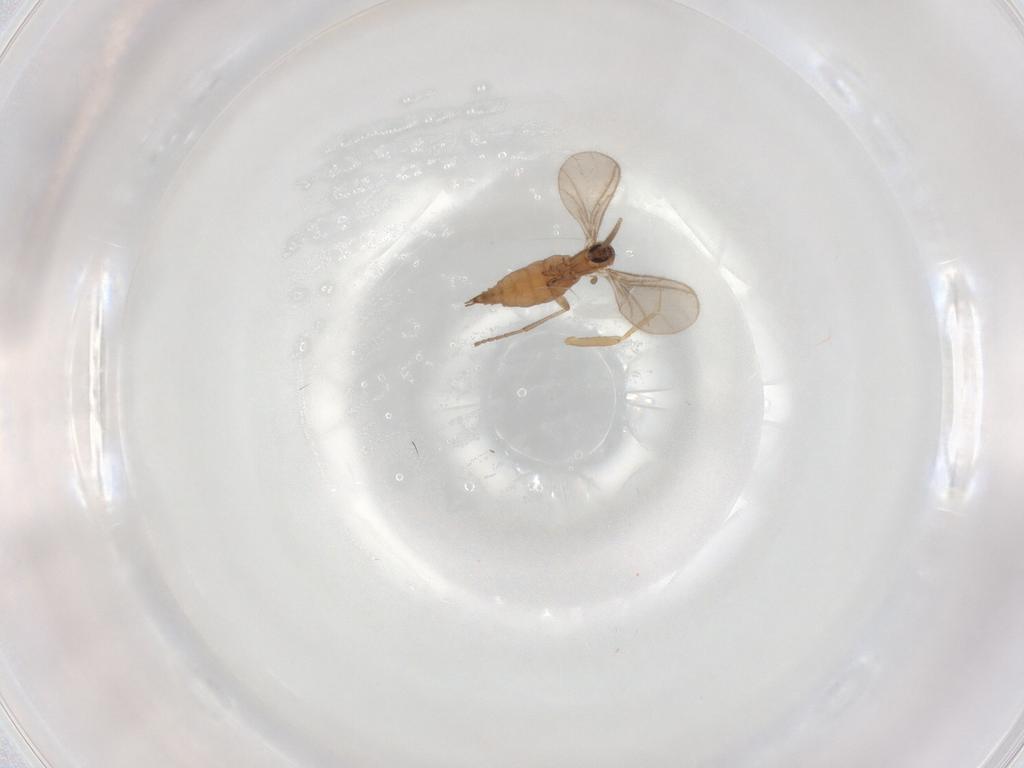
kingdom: Animalia
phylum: Arthropoda
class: Insecta
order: Diptera
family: Sciaridae
